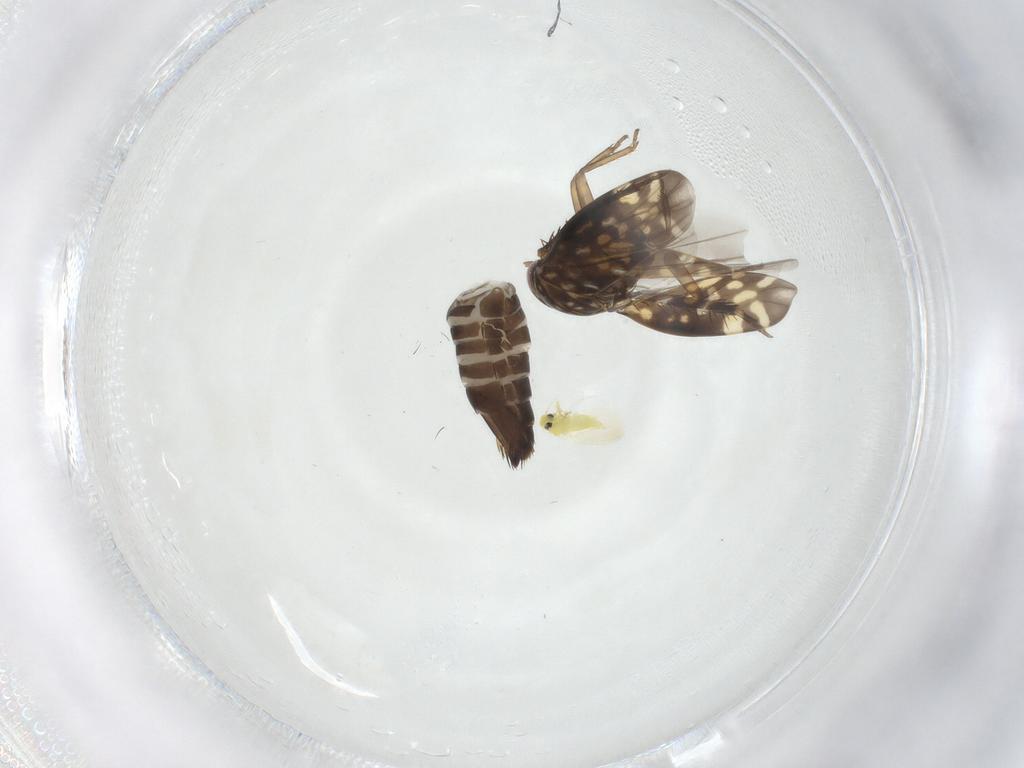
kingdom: Animalia
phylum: Arthropoda
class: Insecta
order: Hemiptera
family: Cicadellidae
